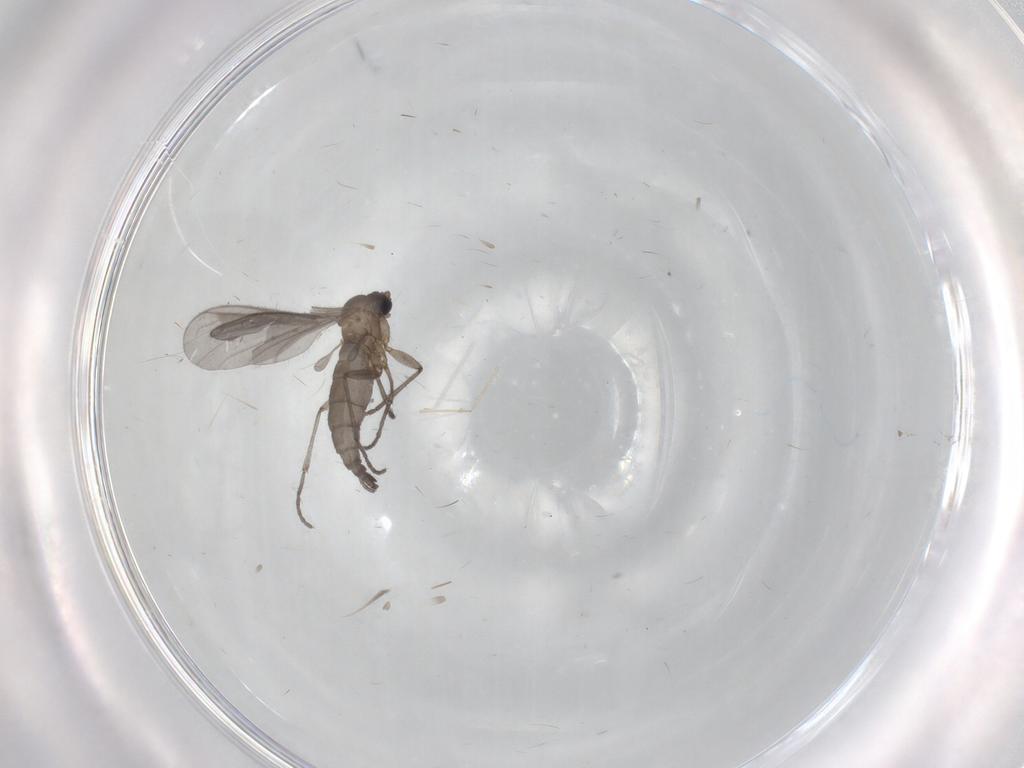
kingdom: Animalia
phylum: Arthropoda
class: Insecta
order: Diptera
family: Sciaridae
